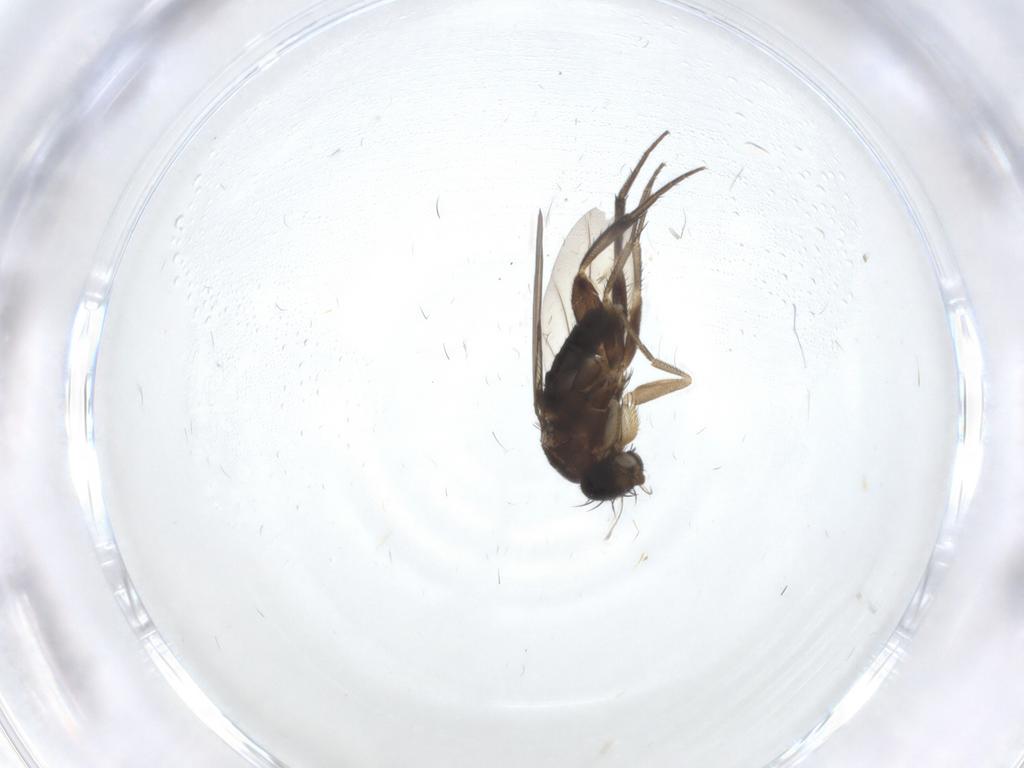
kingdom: Animalia
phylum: Arthropoda
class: Insecta
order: Diptera
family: Phoridae
